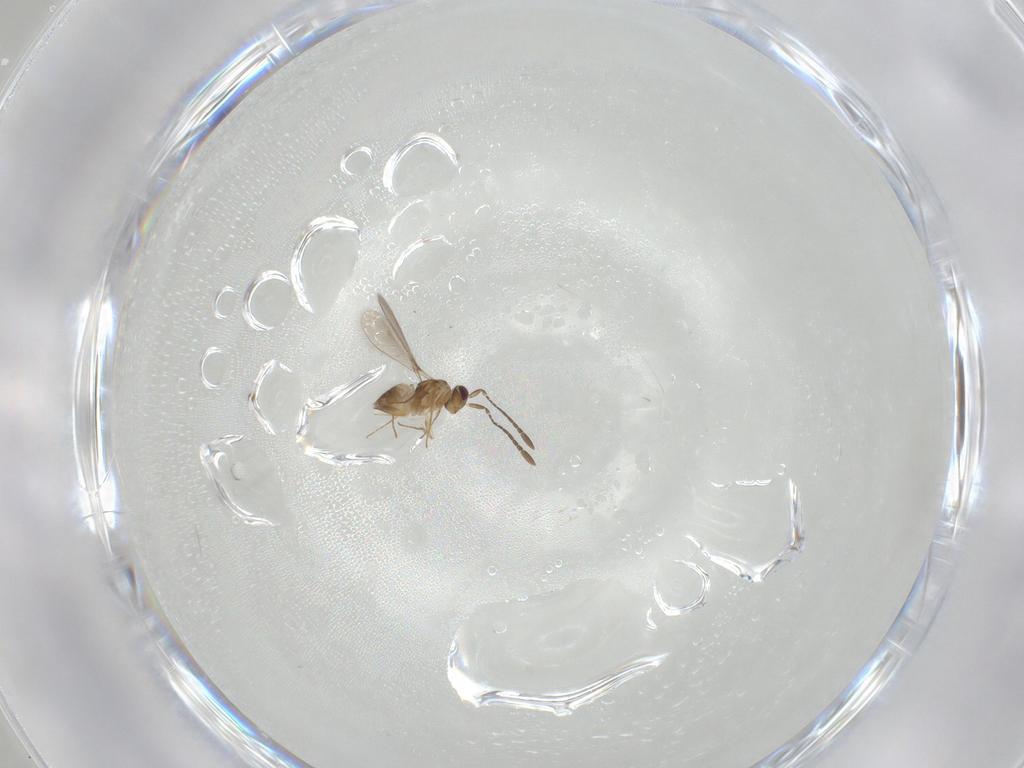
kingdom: Animalia
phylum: Arthropoda
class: Insecta
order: Hymenoptera
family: Mymaridae
